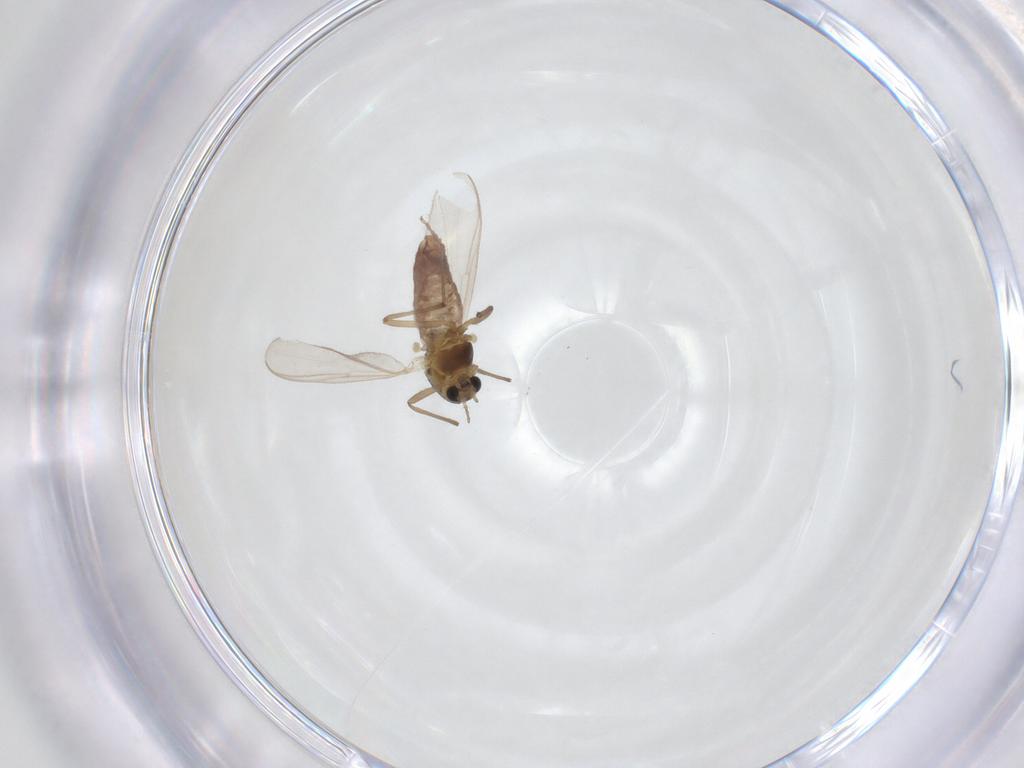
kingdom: Animalia
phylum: Arthropoda
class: Insecta
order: Diptera
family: Chironomidae
